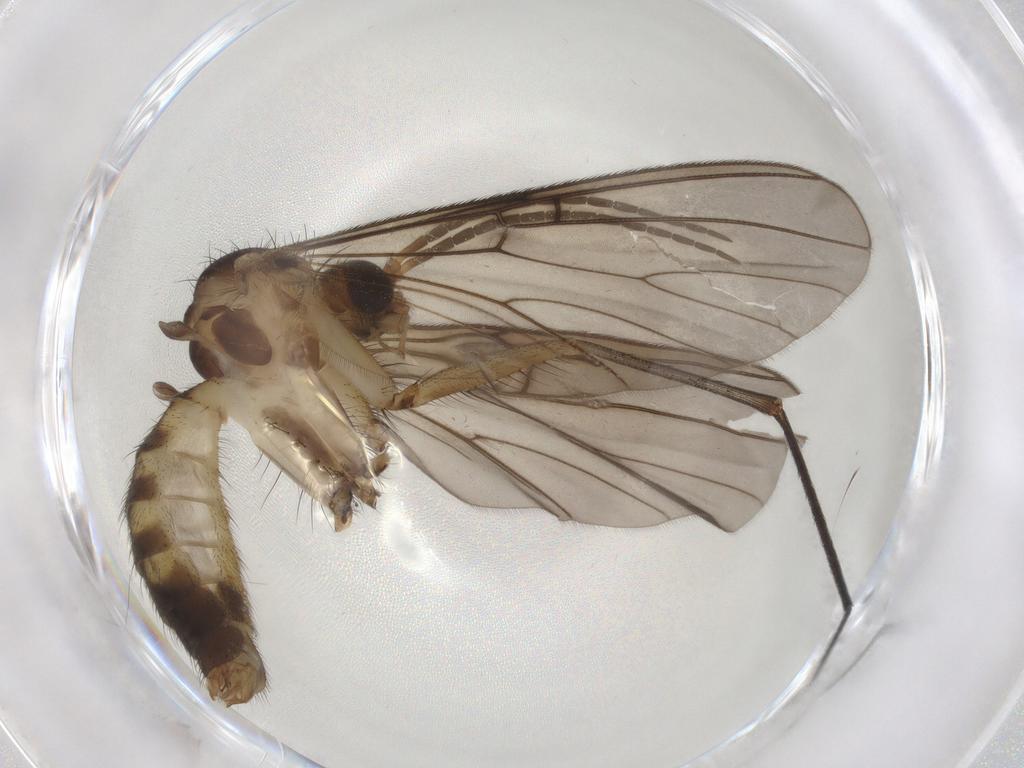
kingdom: Animalia
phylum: Arthropoda
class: Insecta
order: Diptera
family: Mycetophilidae
